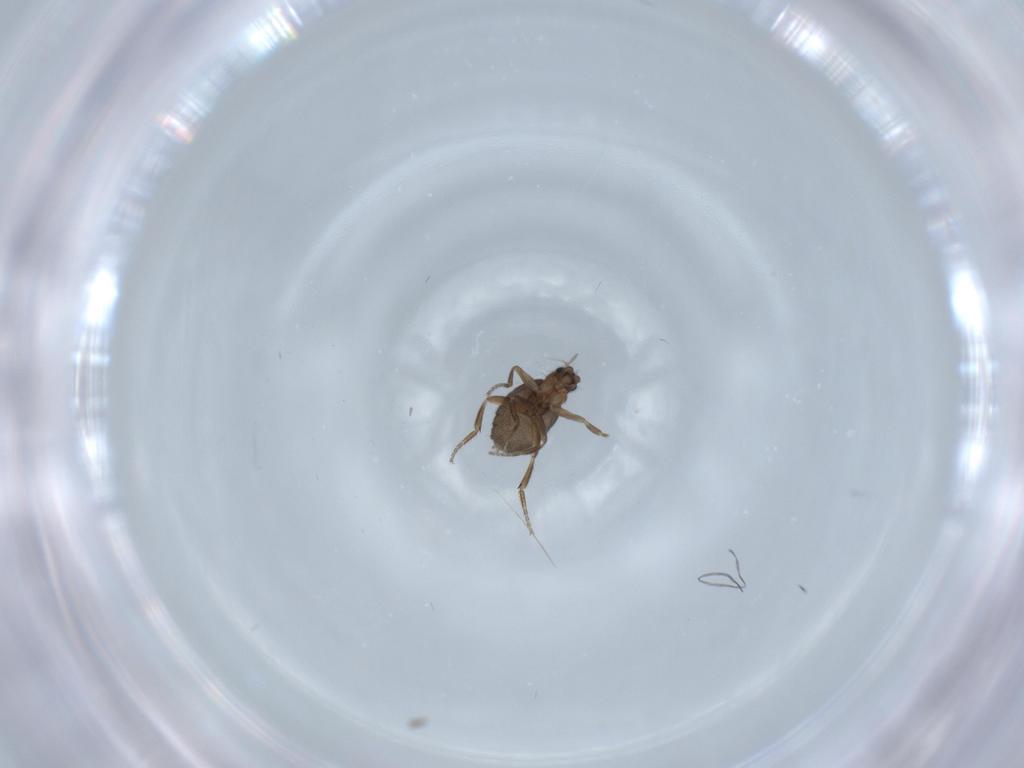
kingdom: Animalia
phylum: Arthropoda
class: Insecta
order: Diptera
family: Phoridae
